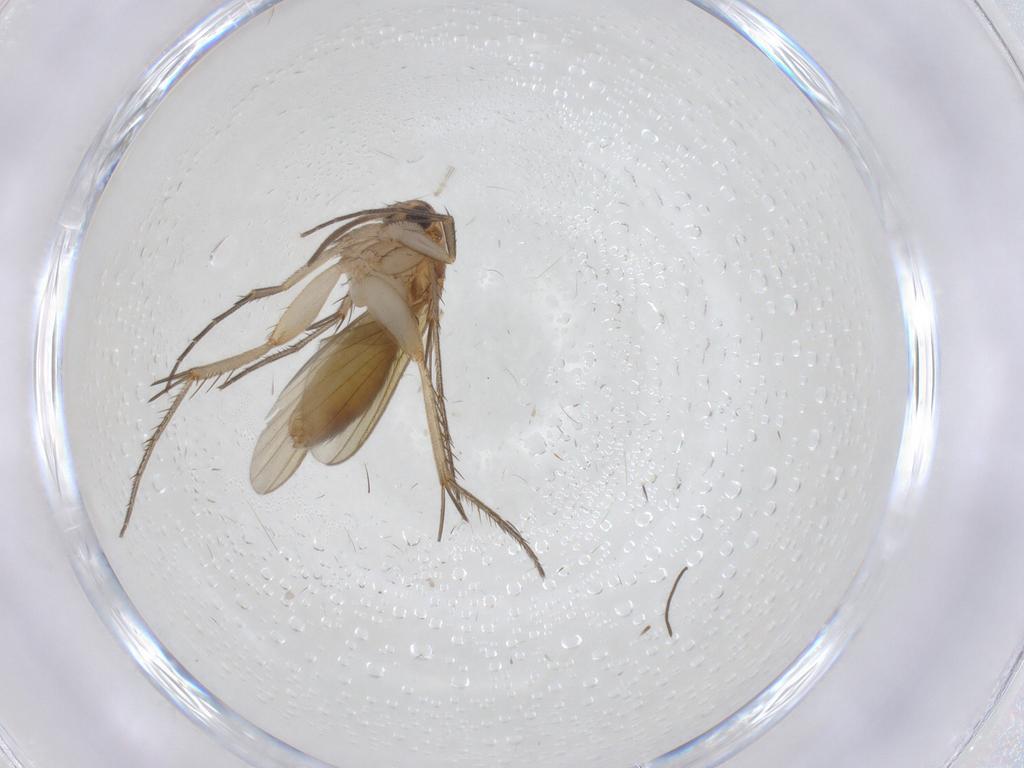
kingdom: Animalia
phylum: Arthropoda
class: Insecta
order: Diptera
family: Mycetophilidae
